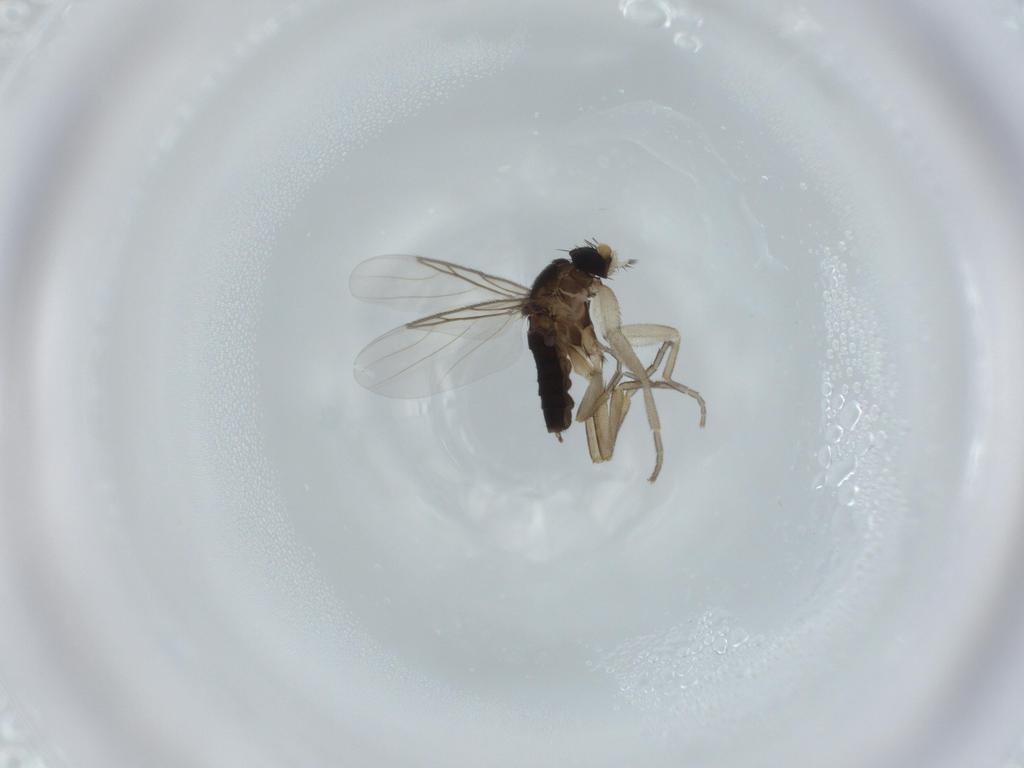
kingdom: Animalia
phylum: Arthropoda
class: Insecta
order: Diptera
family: Phoridae
